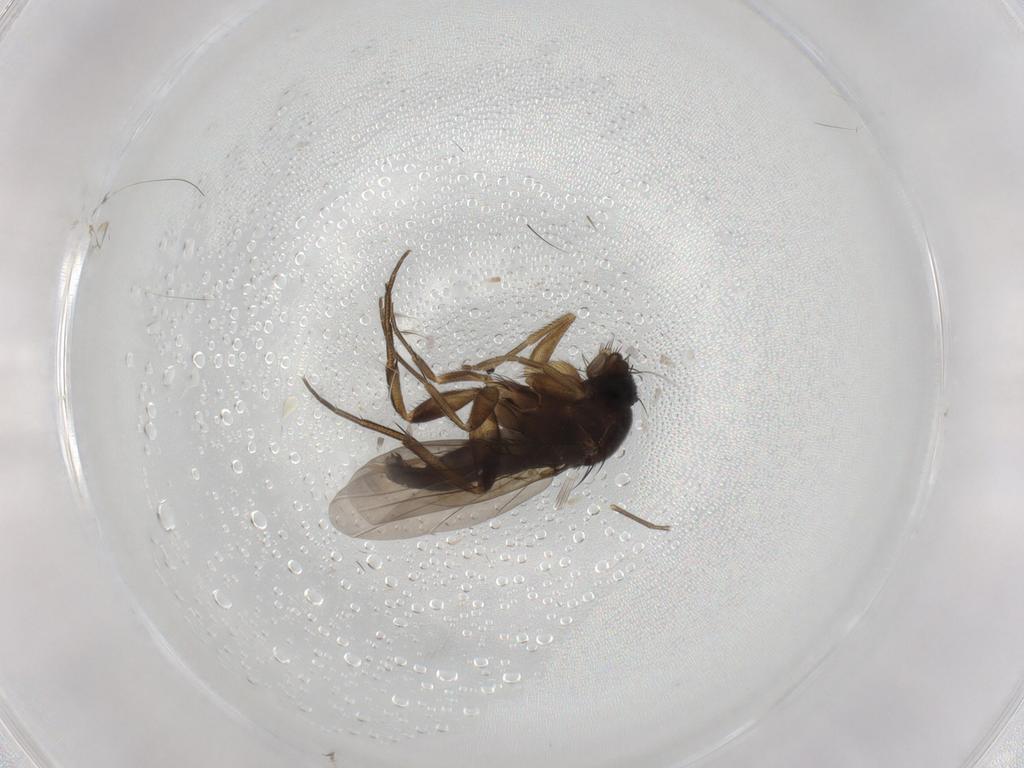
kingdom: Animalia
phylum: Arthropoda
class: Insecta
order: Diptera
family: Phoridae
